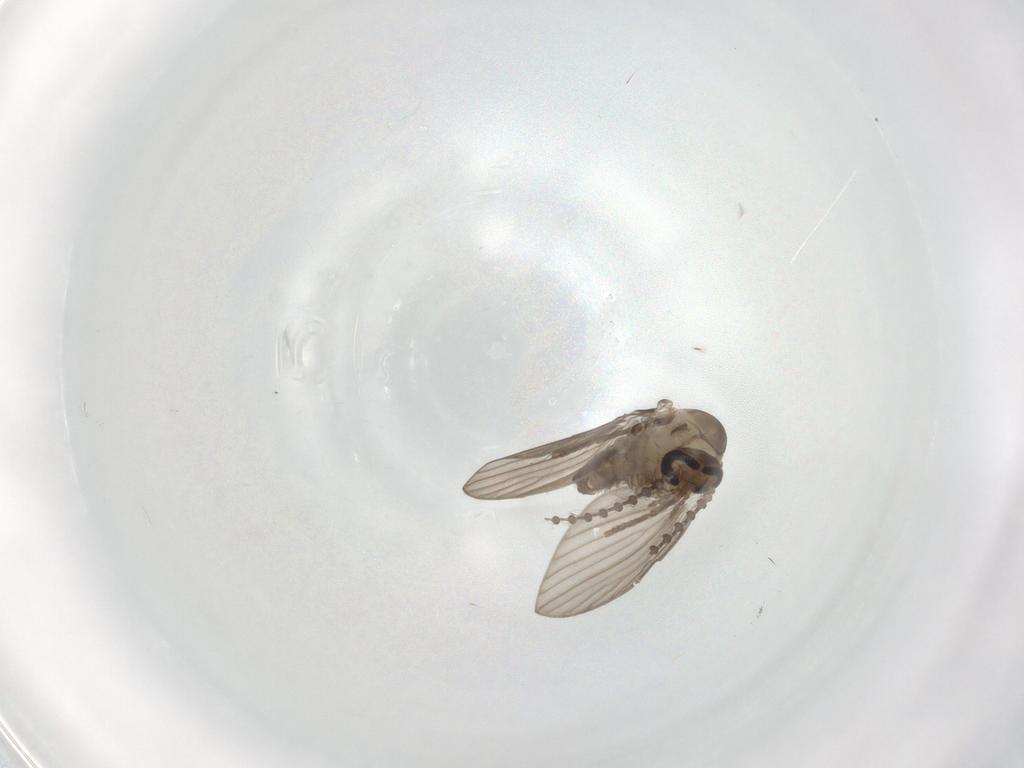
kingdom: Animalia
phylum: Arthropoda
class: Insecta
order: Diptera
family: Psychodidae
